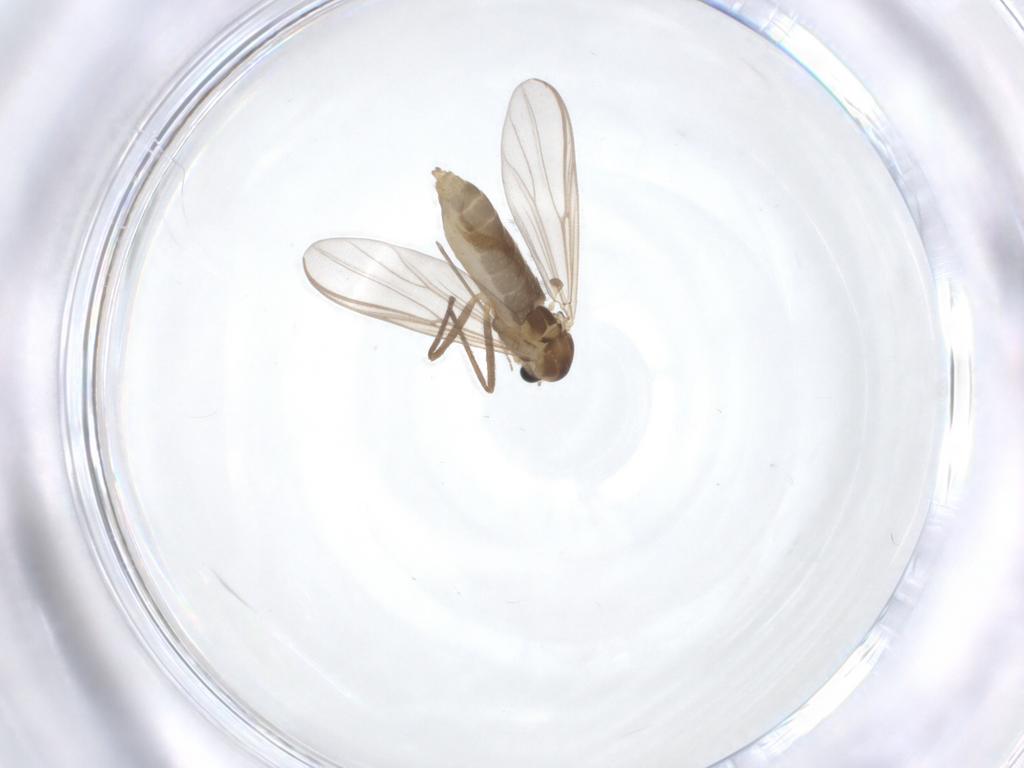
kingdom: Animalia
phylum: Arthropoda
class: Insecta
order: Diptera
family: Chironomidae
